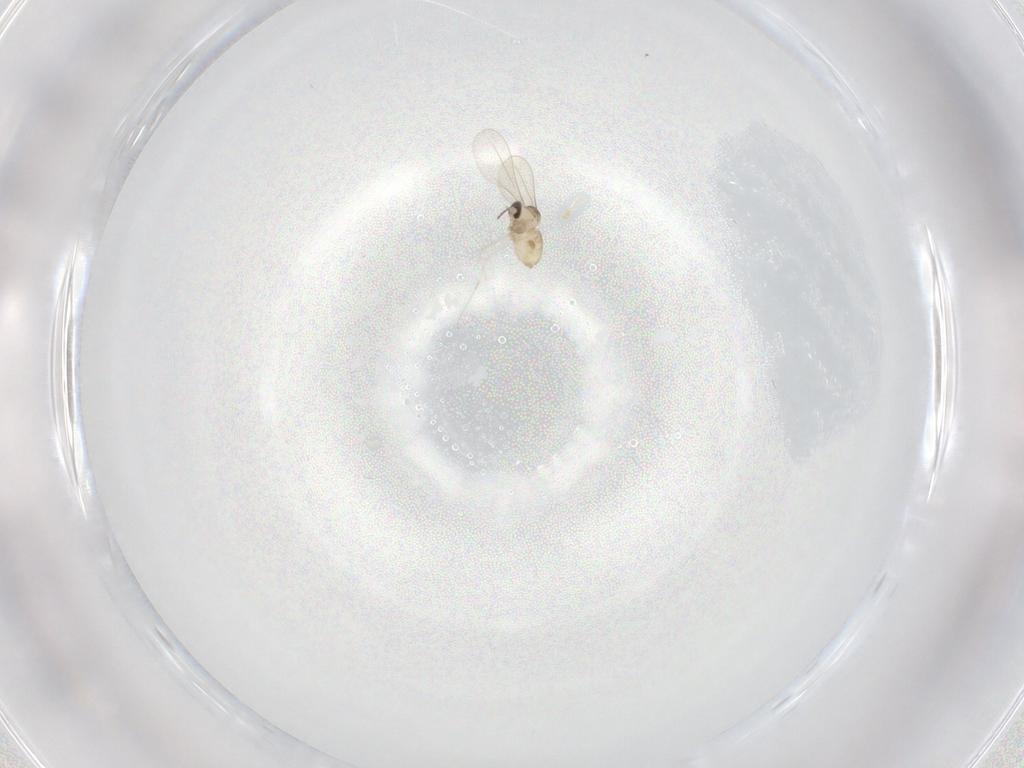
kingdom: Animalia
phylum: Arthropoda
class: Insecta
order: Diptera
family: Cecidomyiidae
